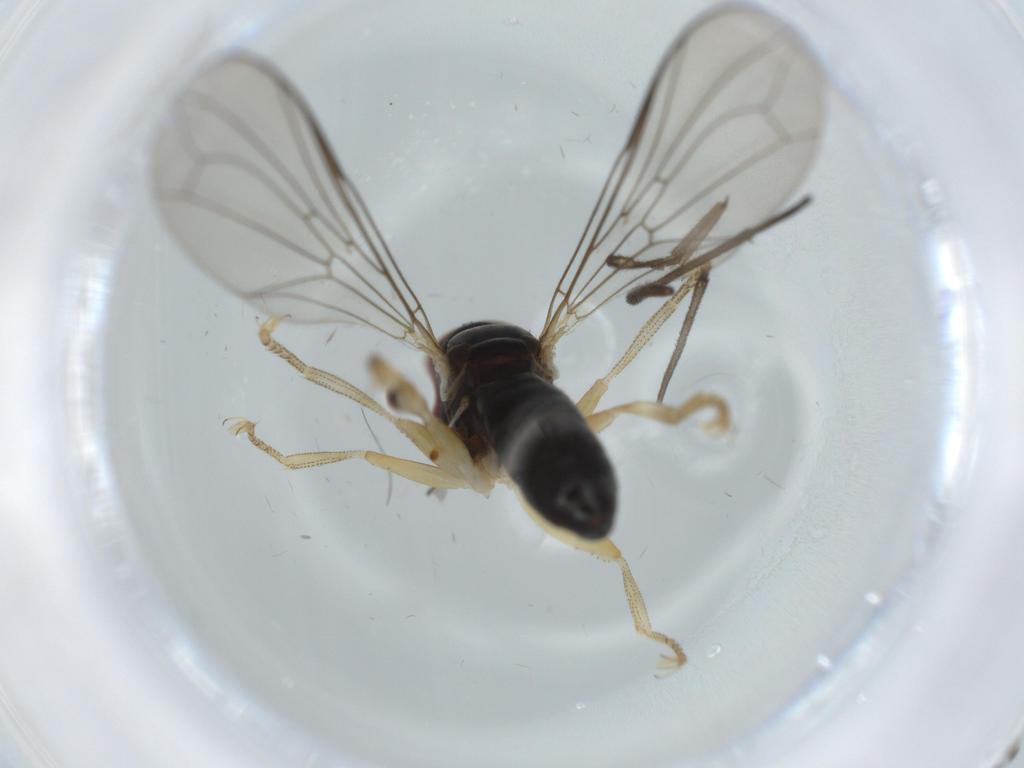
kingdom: Animalia
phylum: Arthropoda
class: Insecta
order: Diptera
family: Pipunculidae
